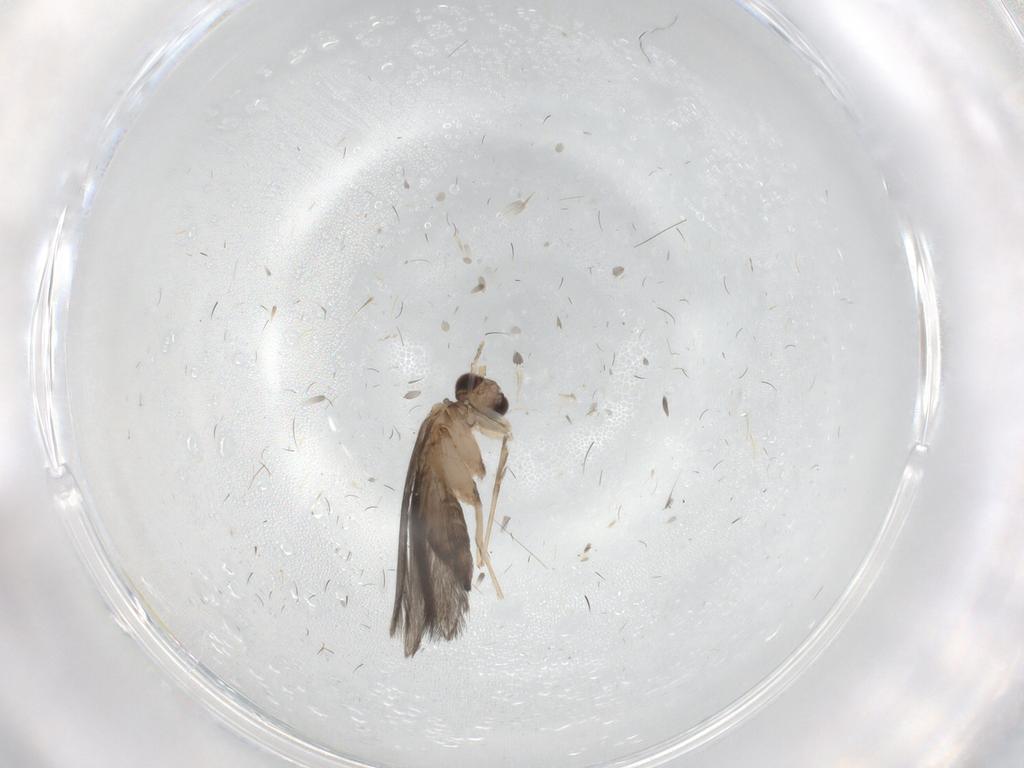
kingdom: Animalia
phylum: Arthropoda
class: Insecta
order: Trichoptera
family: Hydroptilidae
